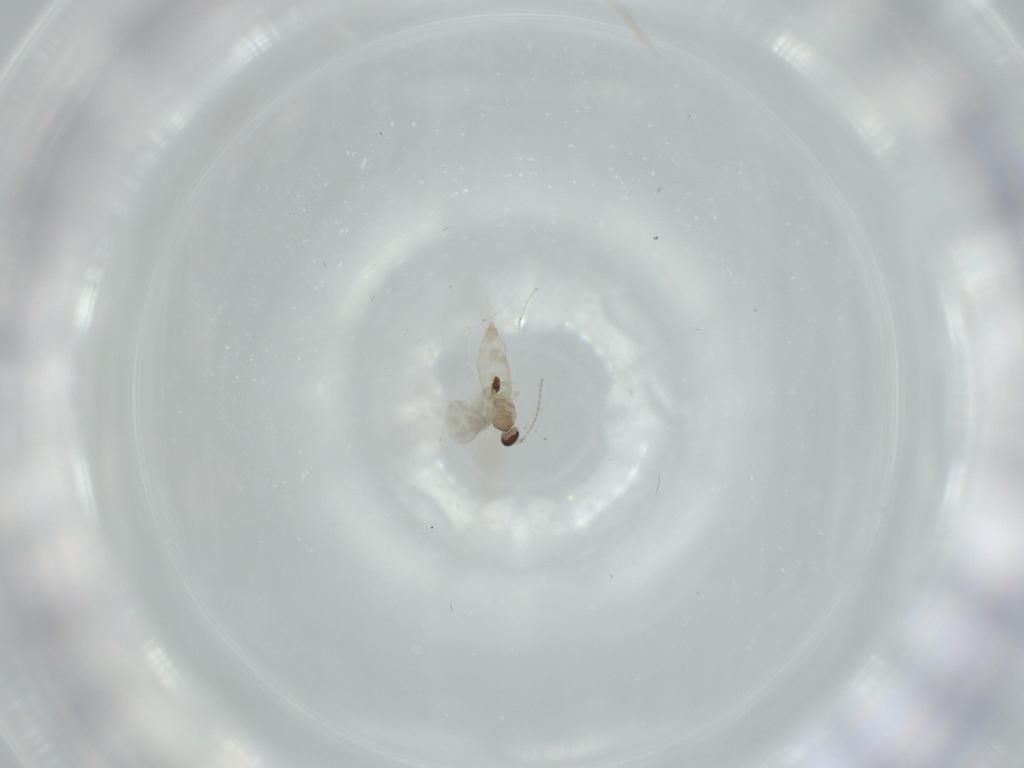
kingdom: Animalia
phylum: Arthropoda
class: Insecta
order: Diptera
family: Cecidomyiidae
